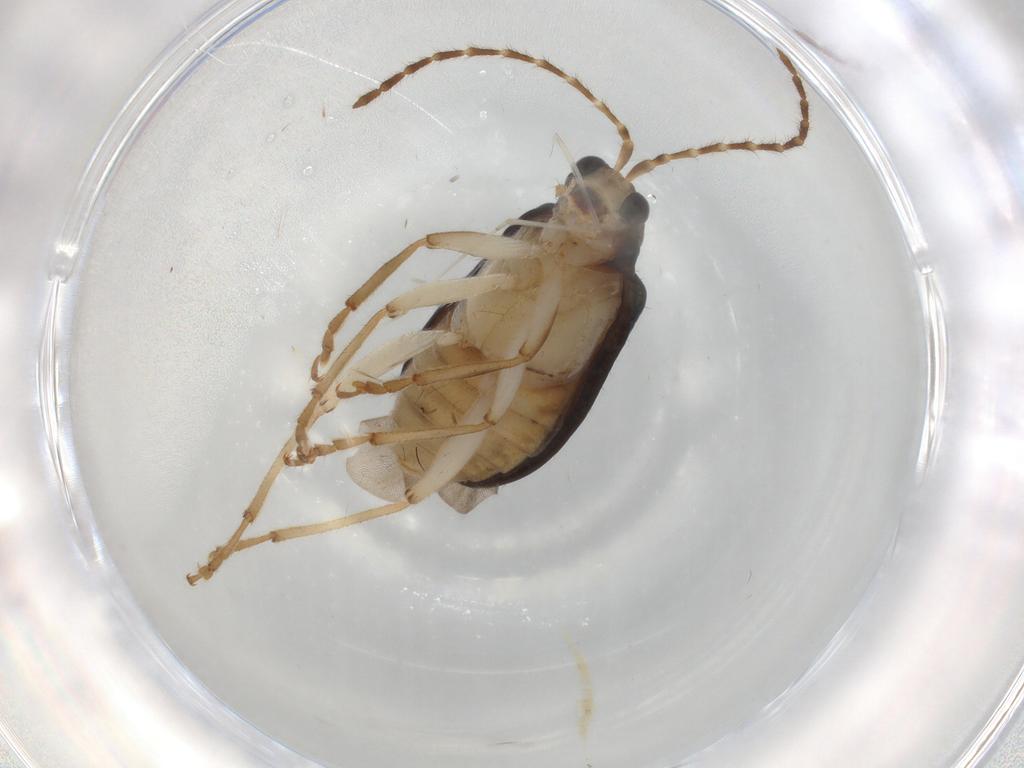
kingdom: Animalia
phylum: Arthropoda
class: Insecta
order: Coleoptera
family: Chrysomelidae
